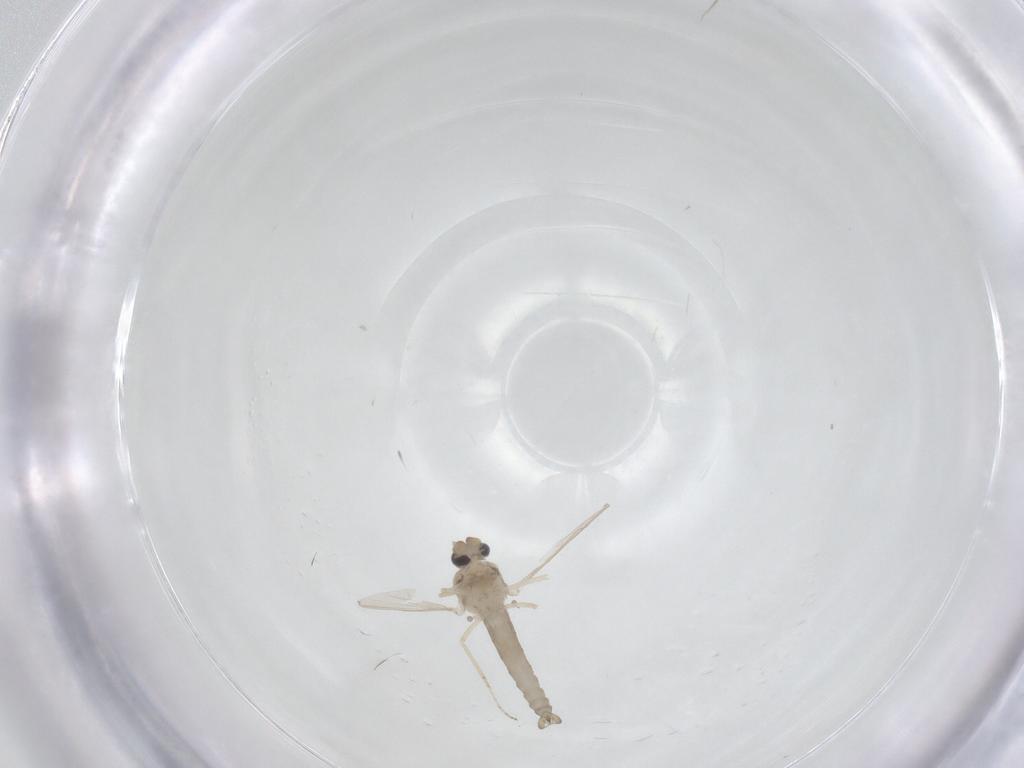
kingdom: Animalia
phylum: Arthropoda
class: Insecta
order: Diptera
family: Ceratopogonidae
